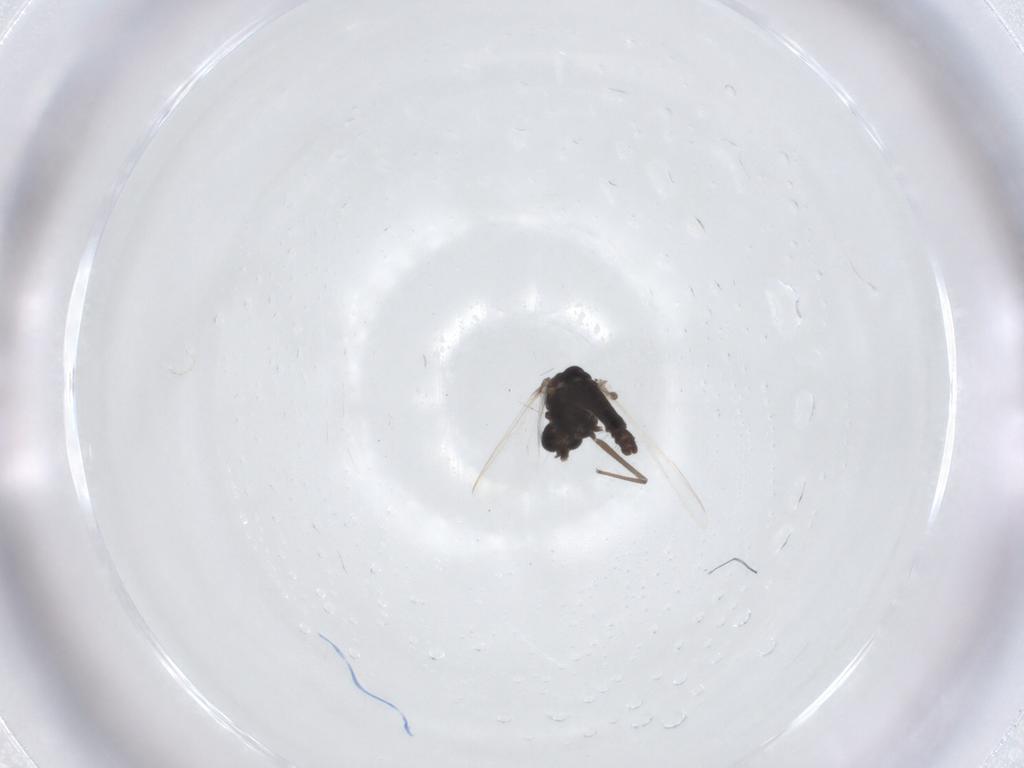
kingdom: Animalia
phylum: Arthropoda
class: Insecta
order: Diptera
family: Chironomidae
